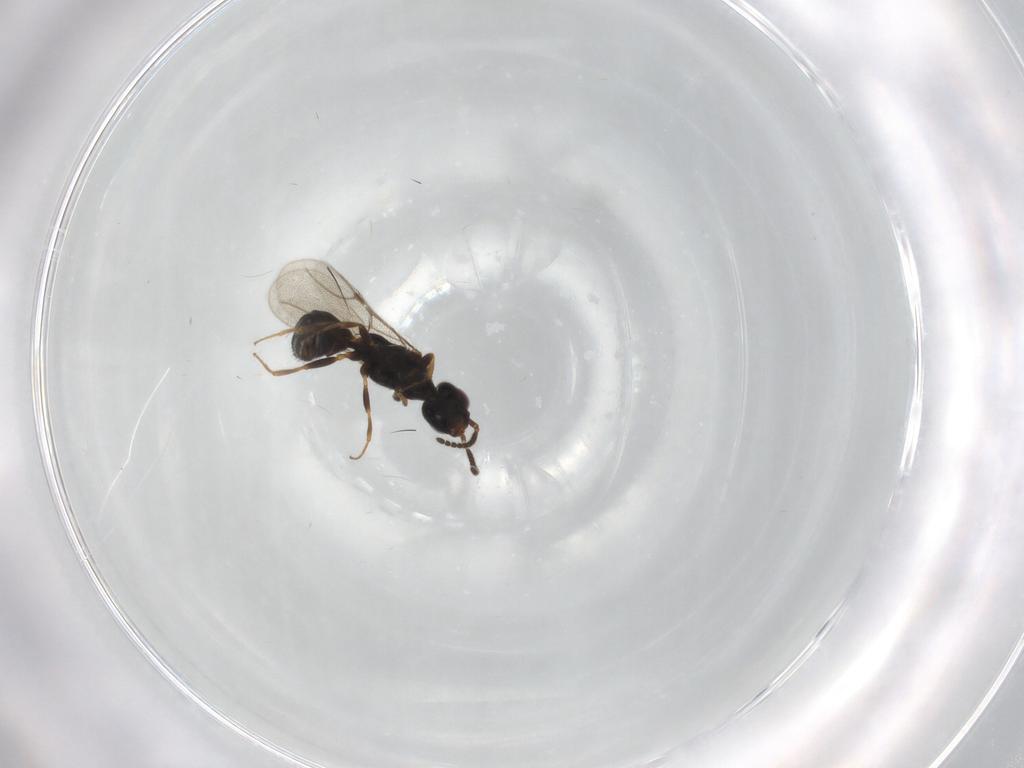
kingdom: Animalia
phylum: Arthropoda
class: Insecta
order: Hymenoptera
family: Bethylidae
